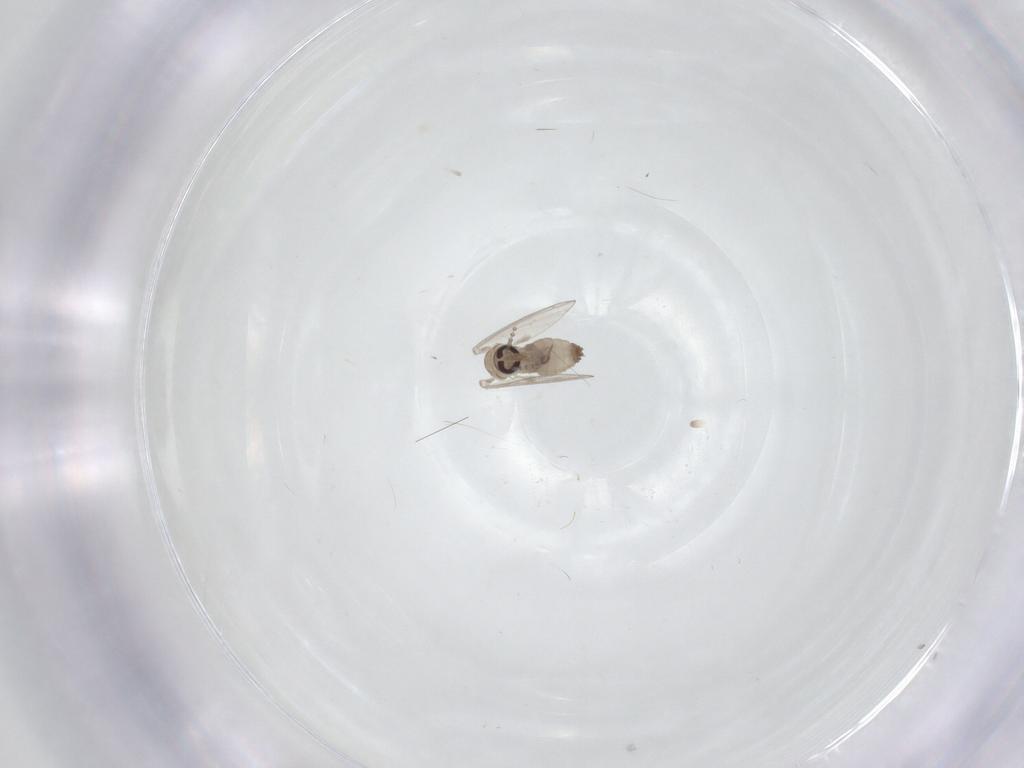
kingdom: Animalia
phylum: Arthropoda
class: Insecta
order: Diptera
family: Psychodidae
